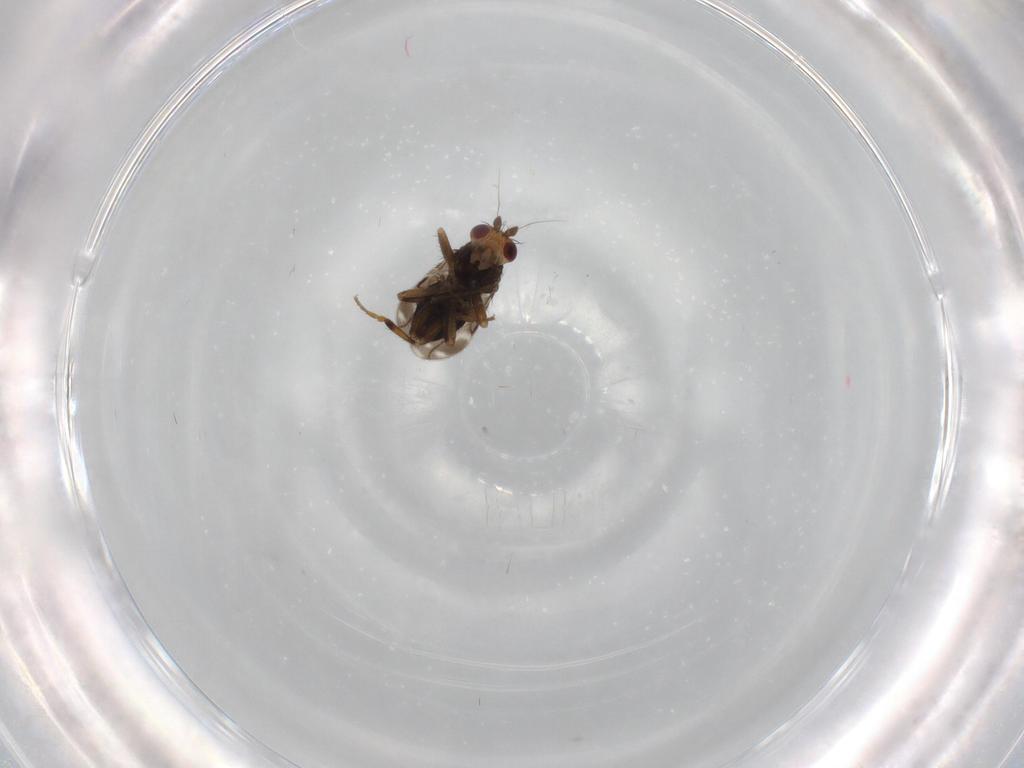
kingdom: Animalia
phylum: Arthropoda
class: Insecta
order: Diptera
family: Sphaeroceridae
